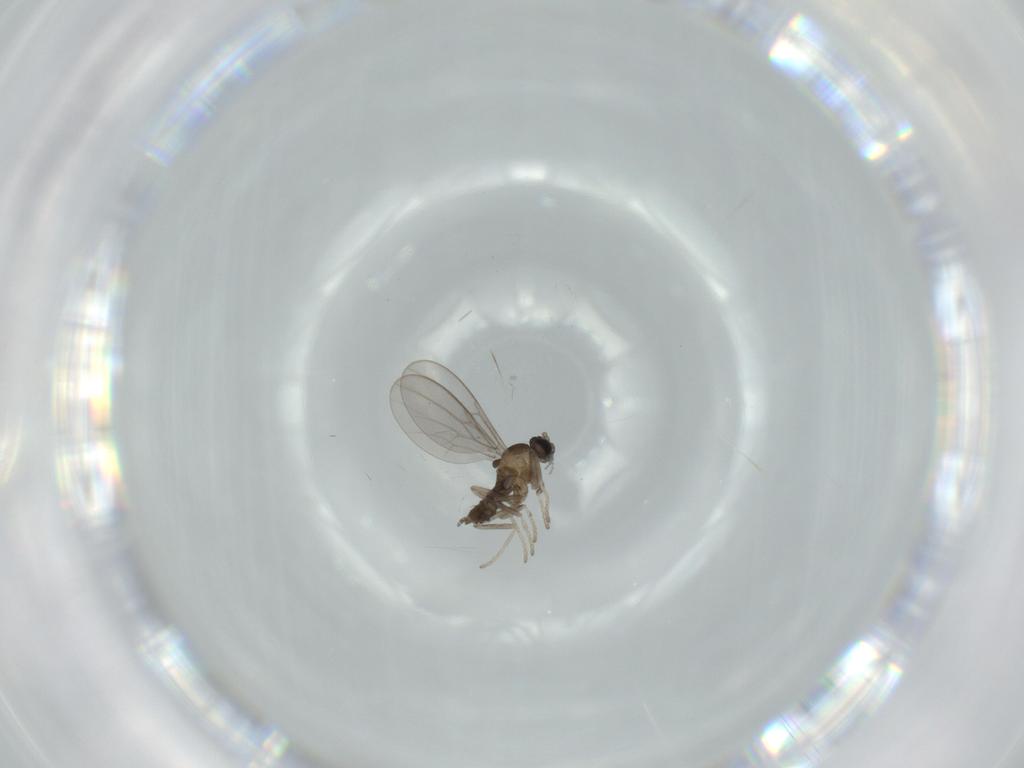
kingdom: Animalia
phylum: Arthropoda
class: Insecta
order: Diptera
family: Cecidomyiidae
